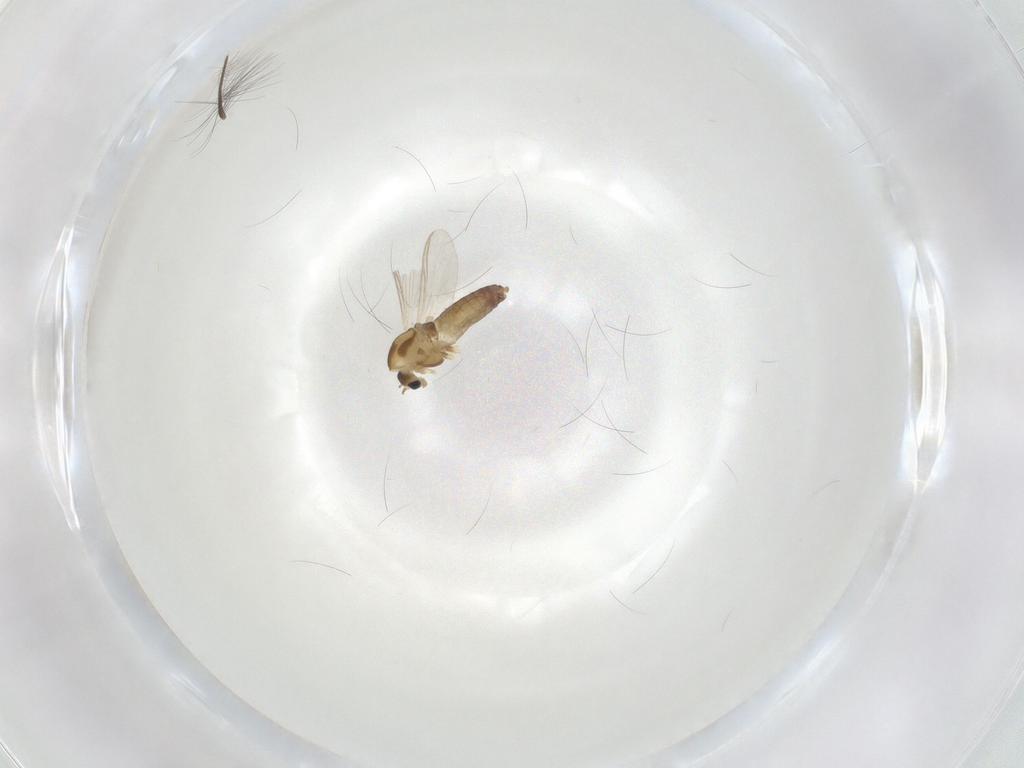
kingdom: Animalia
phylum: Arthropoda
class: Insecta
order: Diptera
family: Chironomidae
